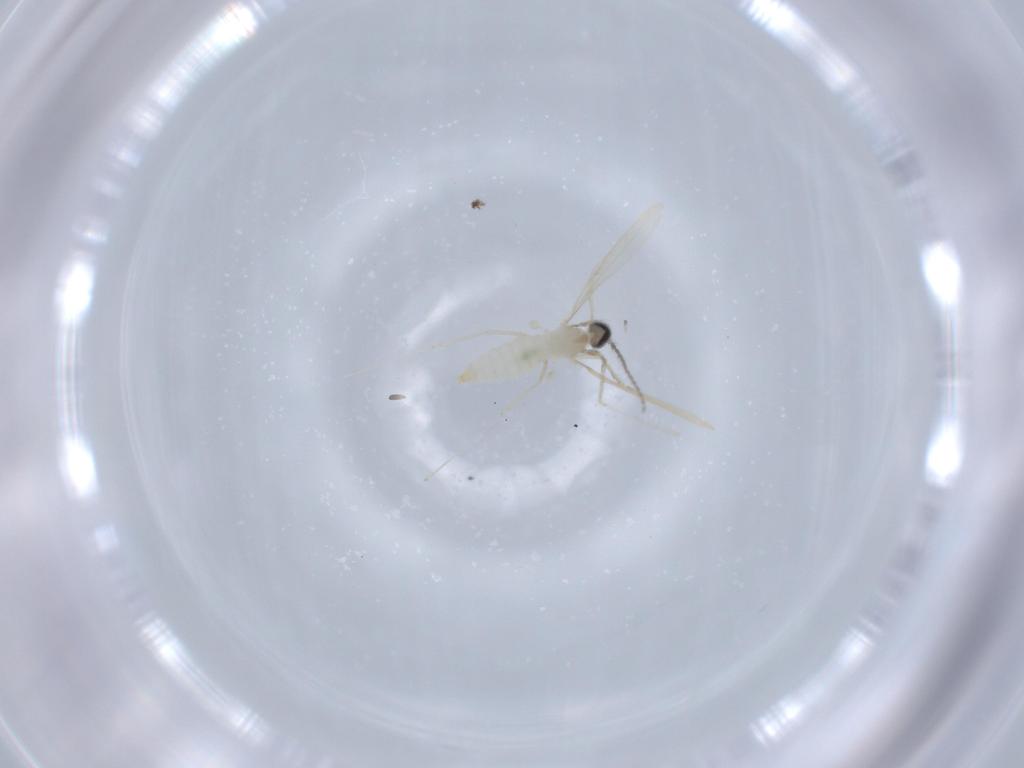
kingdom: Animalia
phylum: Arthropoda
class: Insecta
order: Diptera
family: Cecidomyiidae
